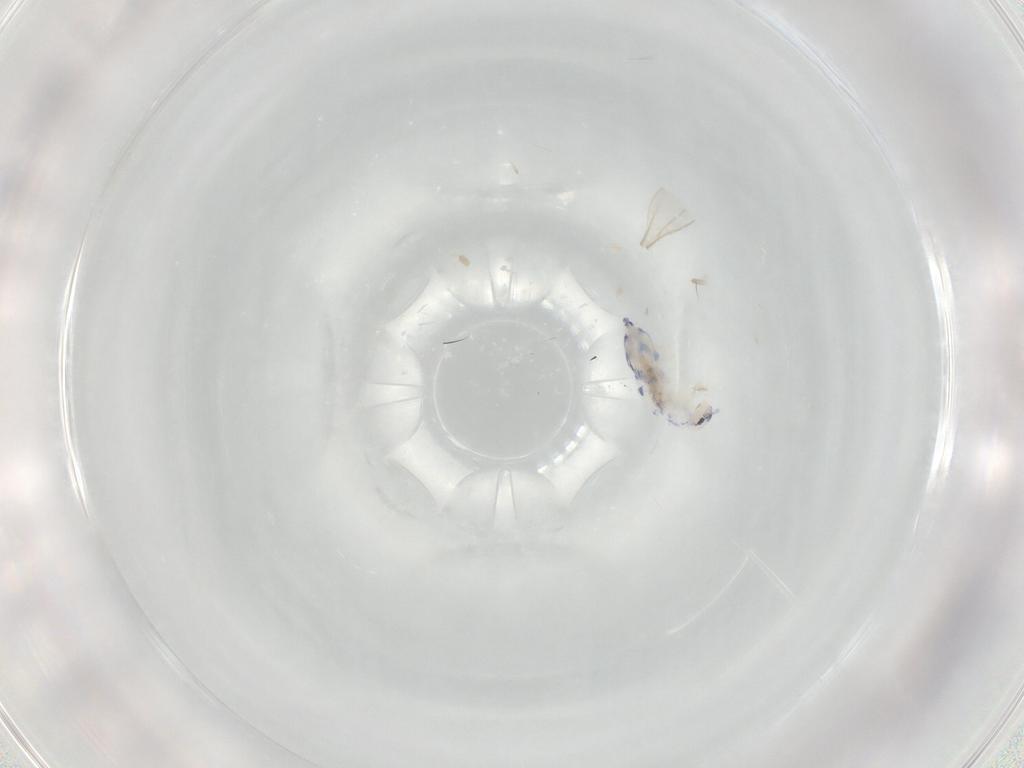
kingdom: Animalia
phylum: Arthropoda
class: Collembola
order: Entomobryomorpha
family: Entomobryidae
